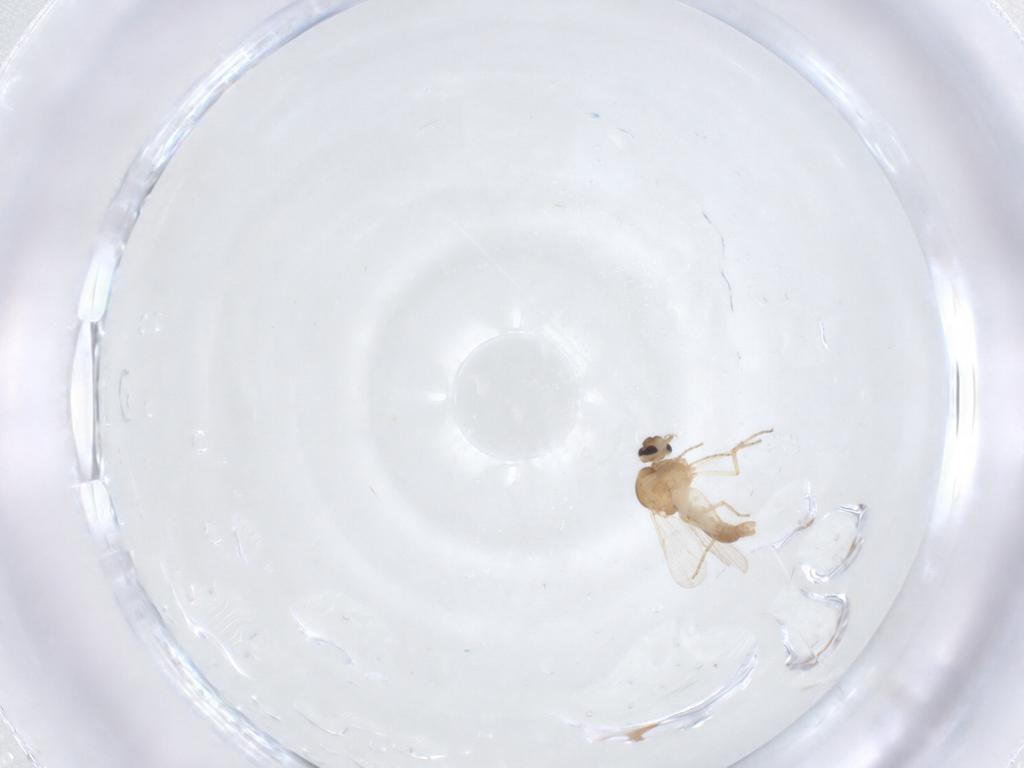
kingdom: Animalia
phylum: Arthropoda
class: Insecta
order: Diptera
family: Ceratopogonidae
